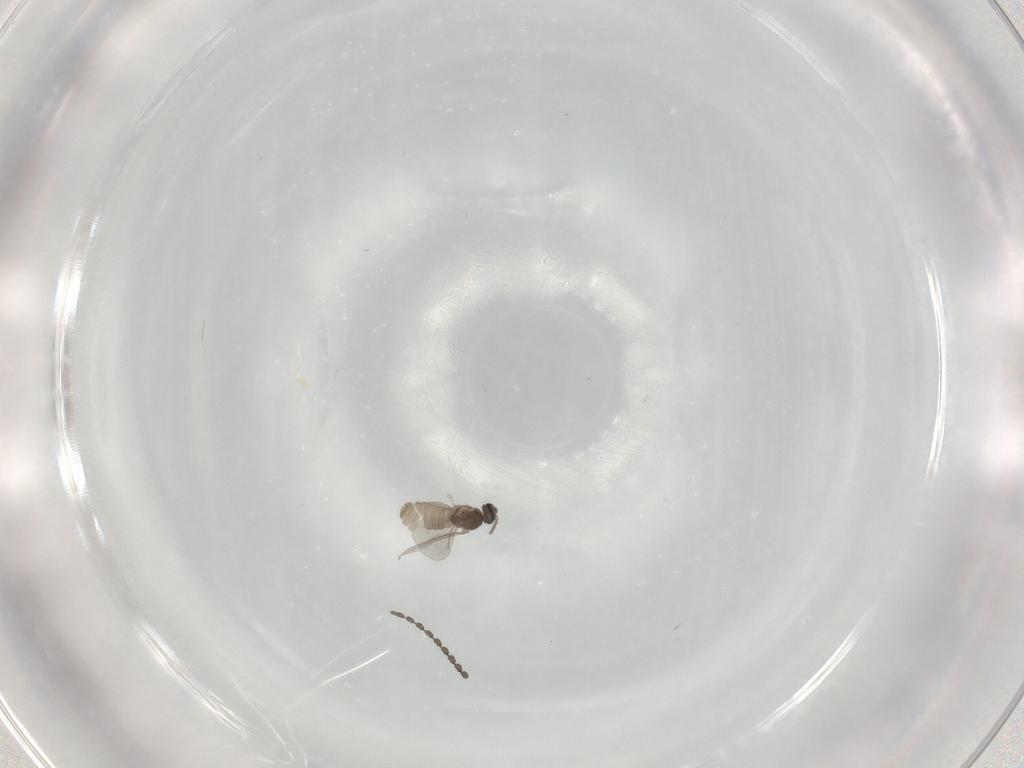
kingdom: Animalia
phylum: Arthropoda
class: Insecta
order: Diptera
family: Cecidomyiidae
